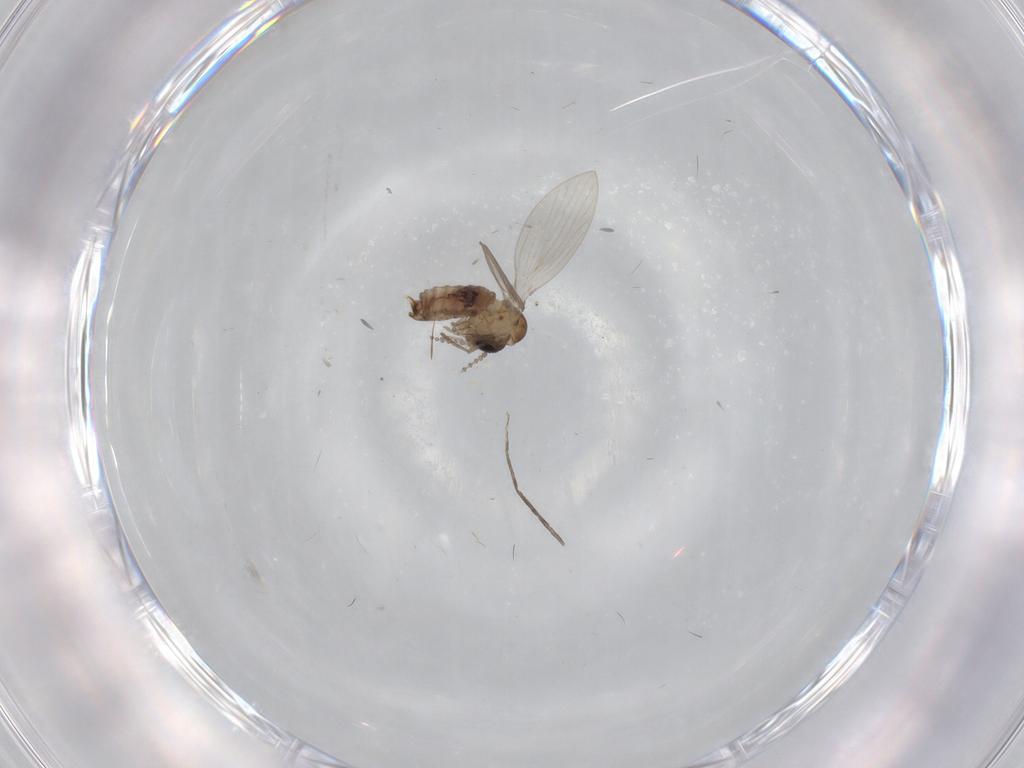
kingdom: Animalia
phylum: Arthropoda
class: Insecta
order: Diptera
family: Psychodidae
